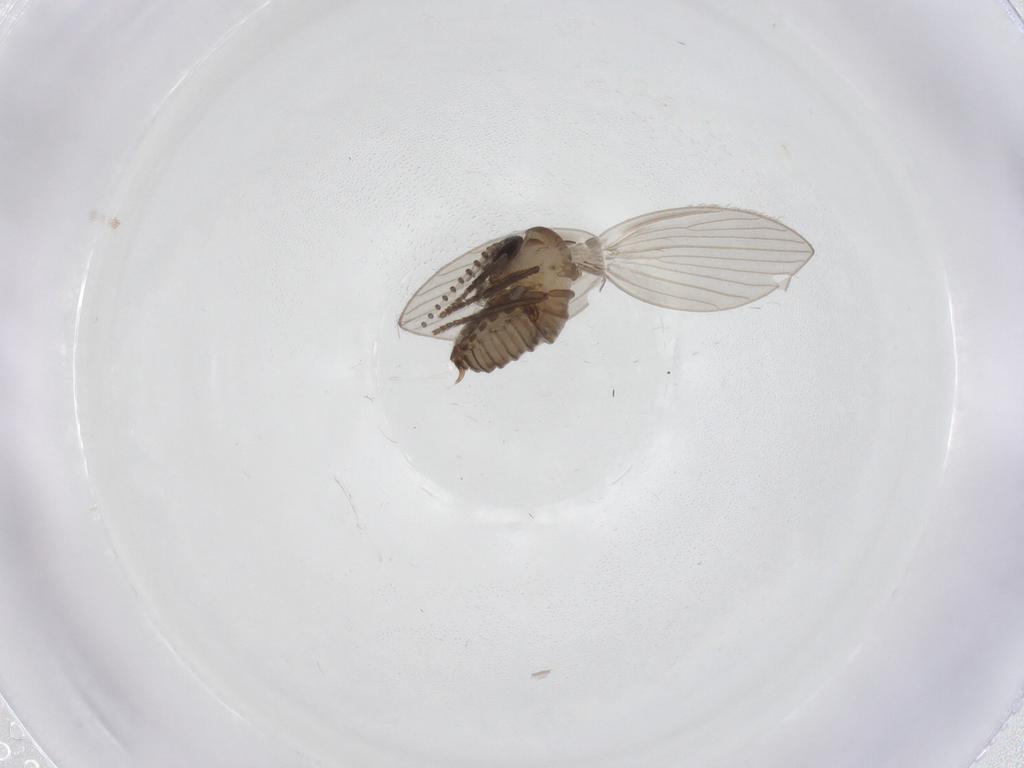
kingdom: Animalia
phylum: Arthropoda
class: Insecta
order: Diptera
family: Psychodidae
